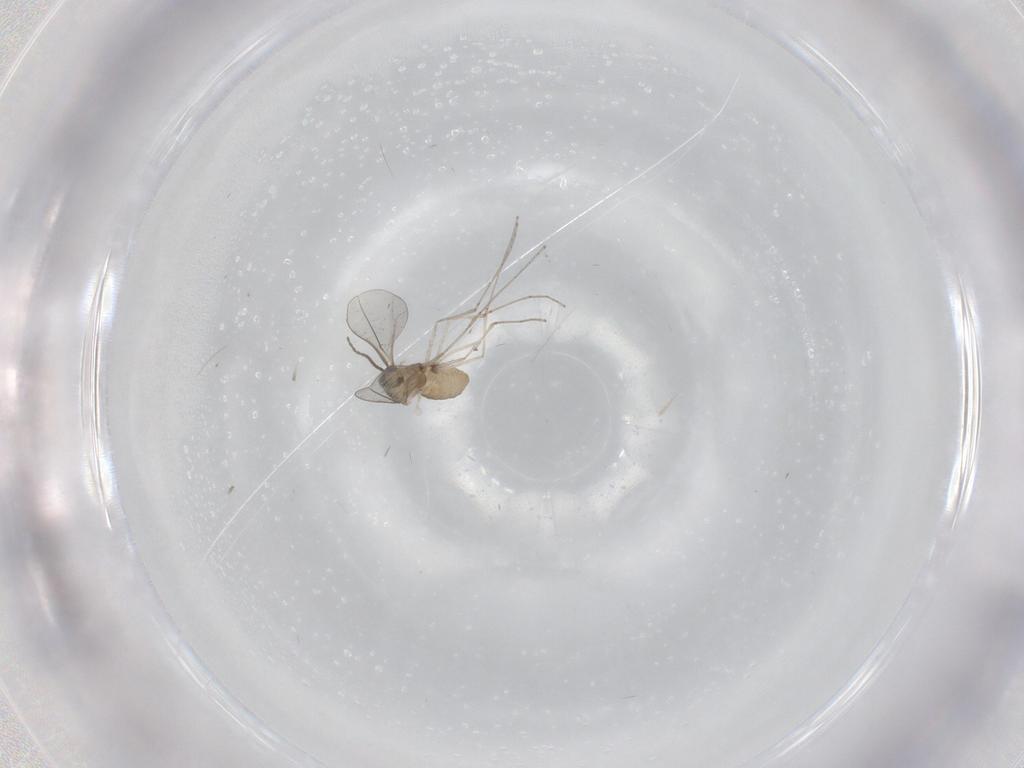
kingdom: Animalia
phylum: Arthropoda
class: Insecta
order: Diptera
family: Cecidomyiidae
